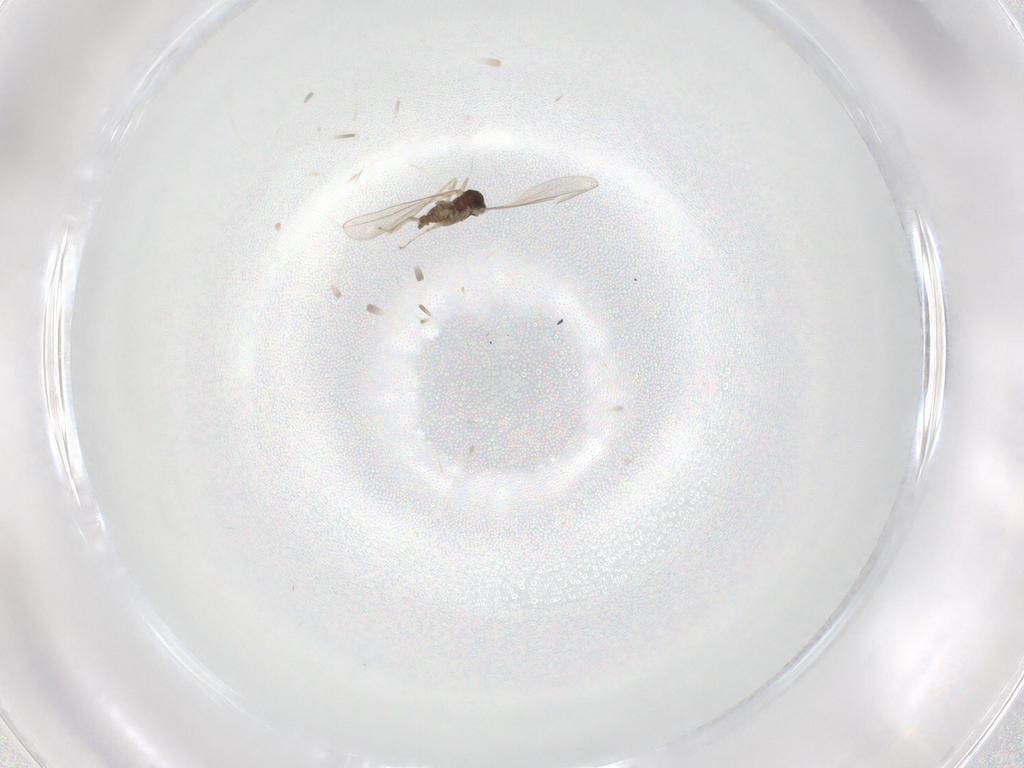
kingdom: Animalia
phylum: Arthropoda
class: Insecta
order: Diptera
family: Cecidomyiidae
